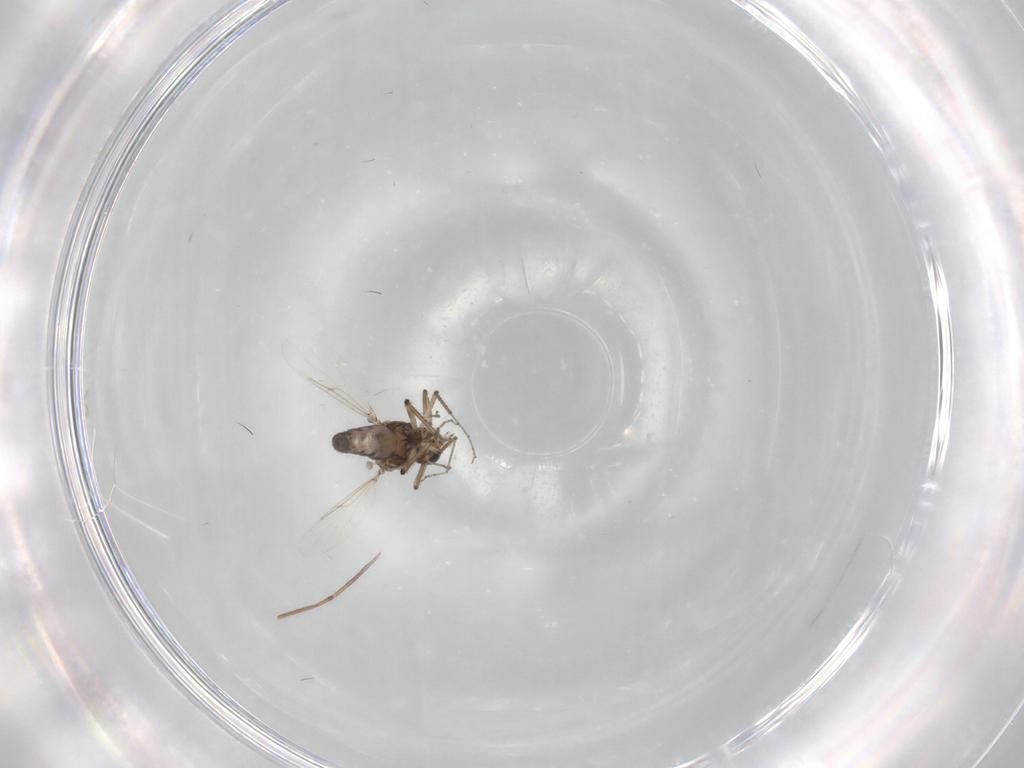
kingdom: Animalia
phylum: Arthropoda
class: Insecta
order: Diptera
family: Ceratopogonidae
